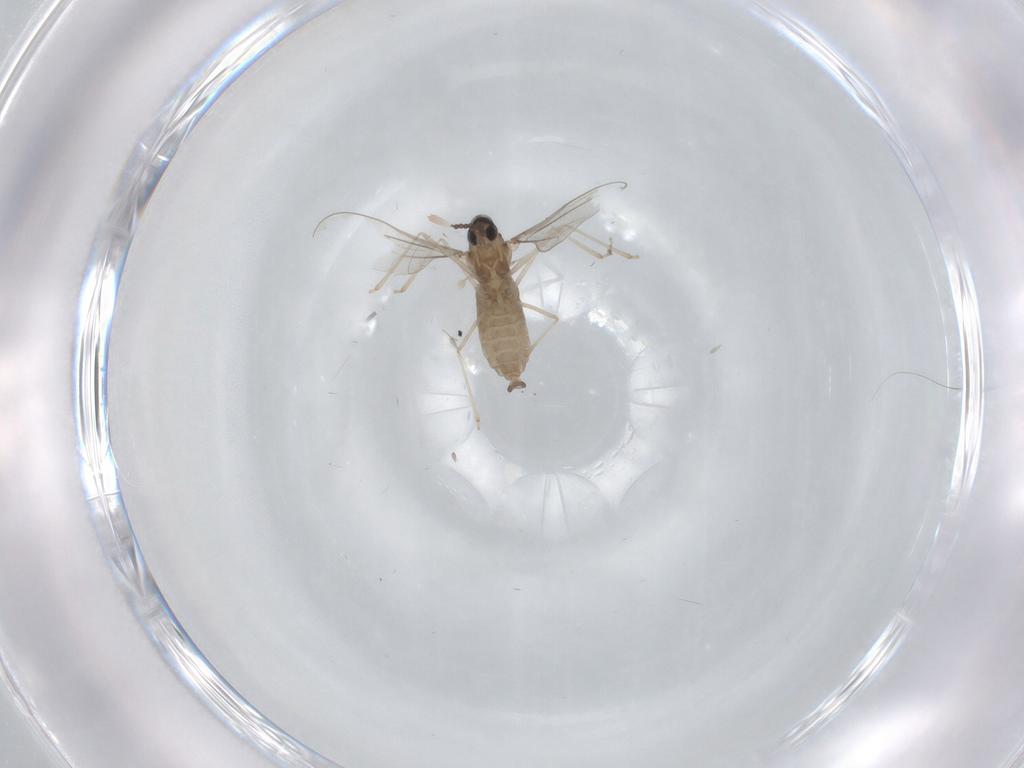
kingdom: Animalia
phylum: Arthropoda
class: Insecta
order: Diptera
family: Cecidomyiidae
